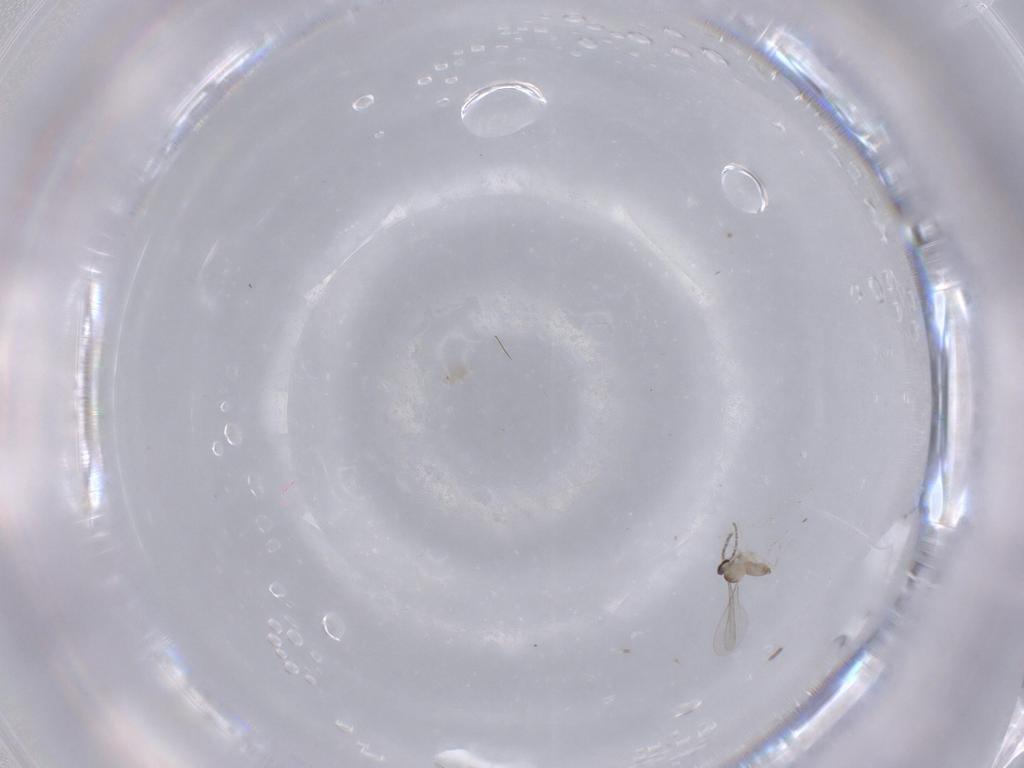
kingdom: Animalia
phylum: Arthropoda
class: Insecta
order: Diptera
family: Cecidomyiidae
